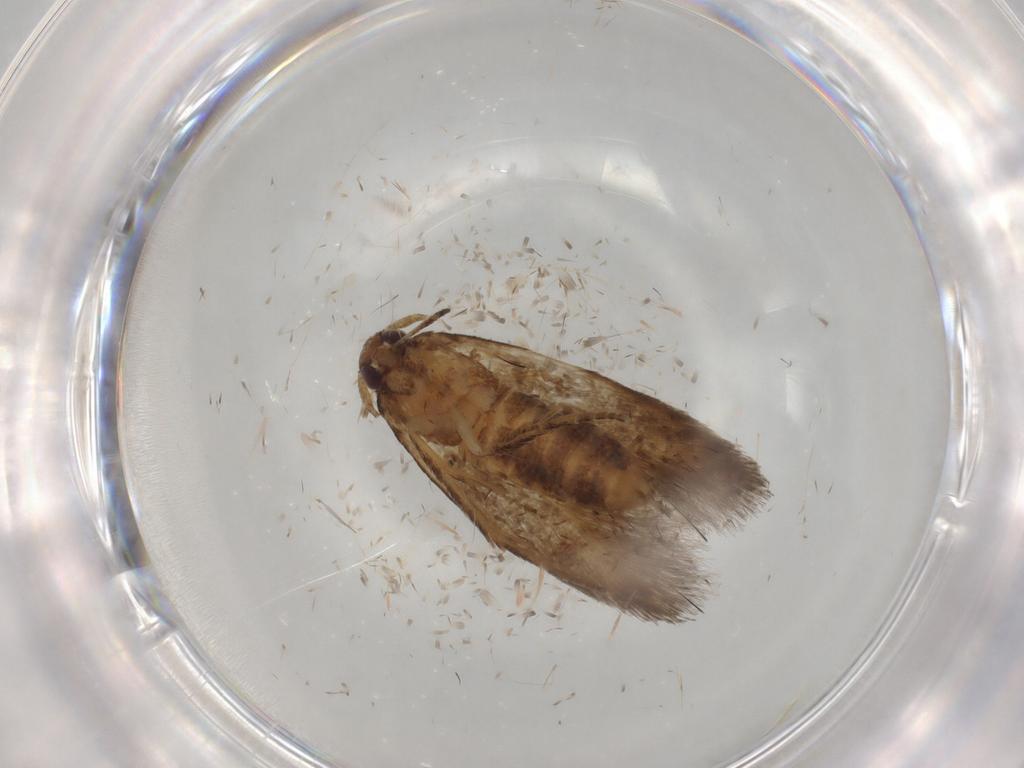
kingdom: Animalia
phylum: Arthropoda
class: Insecta
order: Lepidoptera
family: Cosmopterigidae
